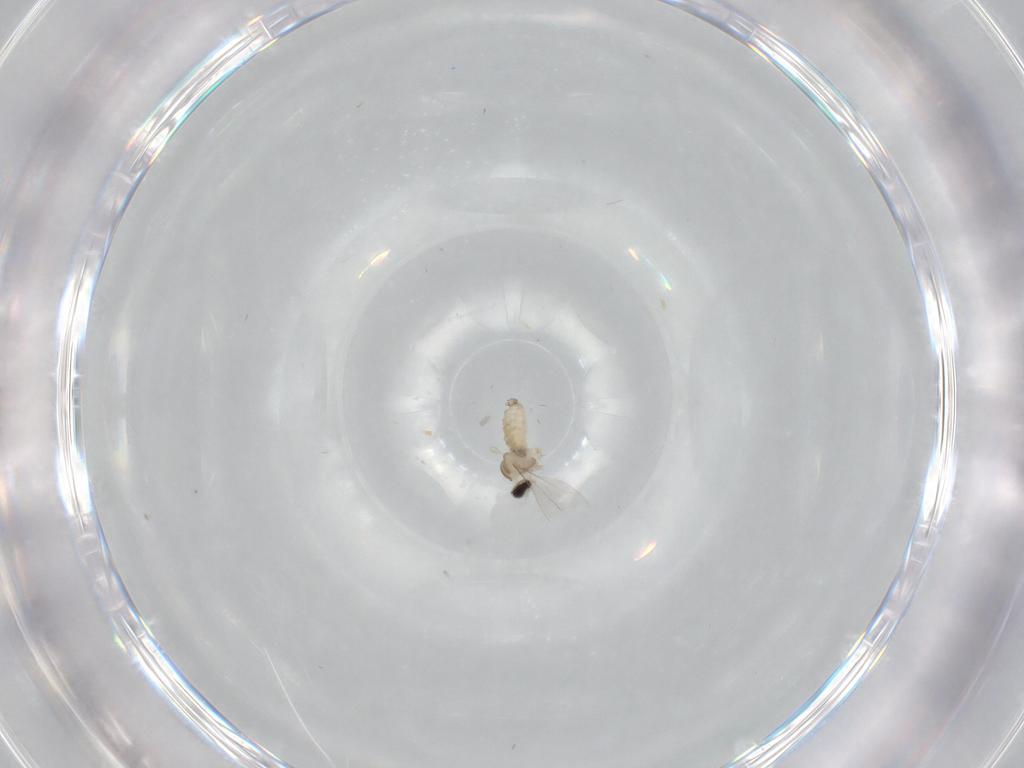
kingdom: Animalia
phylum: Arthropoda
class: Insecta
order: Diptera
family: Cecidomyiidae
